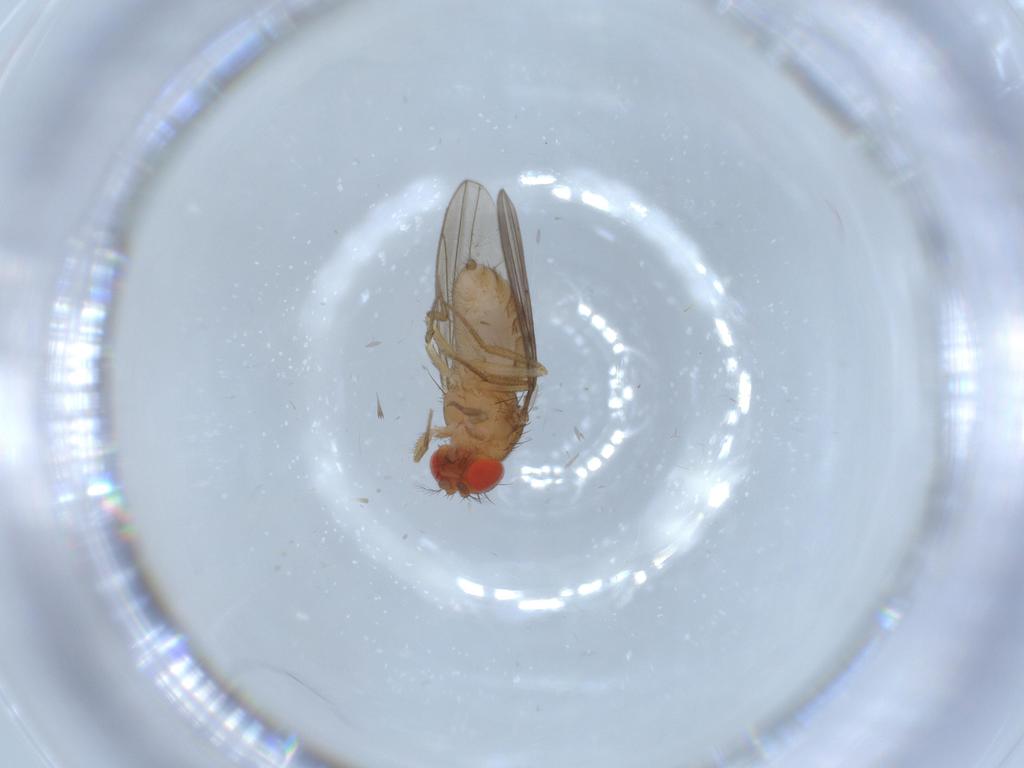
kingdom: Animalia
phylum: Arthropoda
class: Insecta
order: Diptera
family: Drosophilidae
